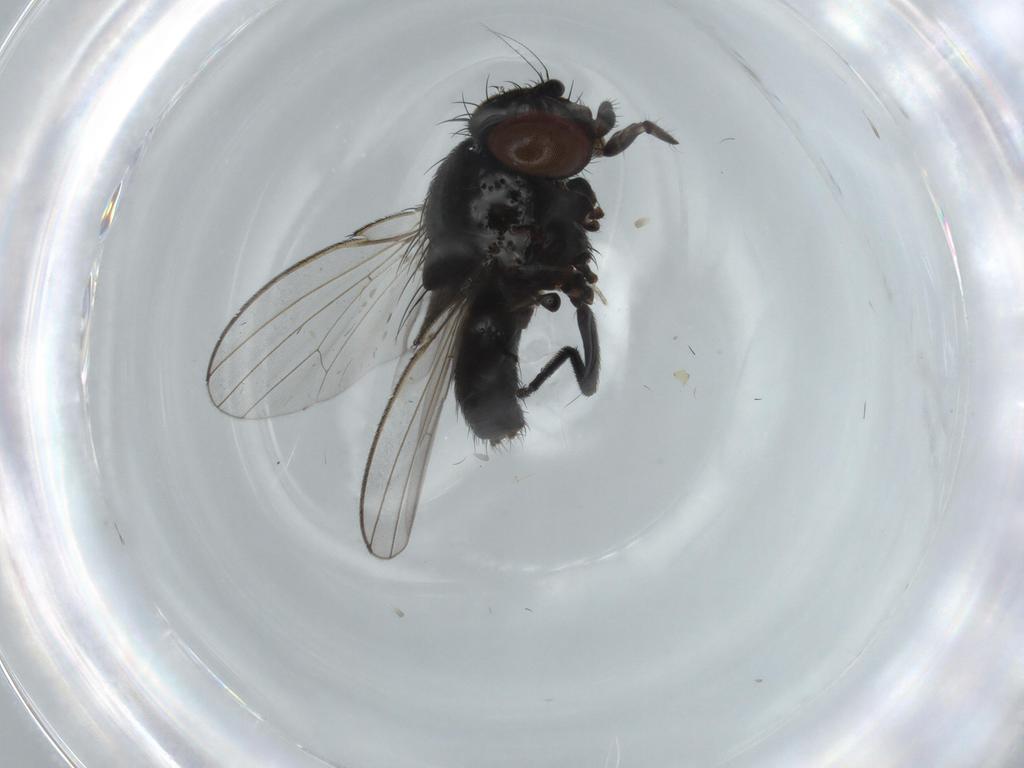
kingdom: Animalia
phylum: Arthropoda
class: Insecta
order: Diptera
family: Milichiidae
